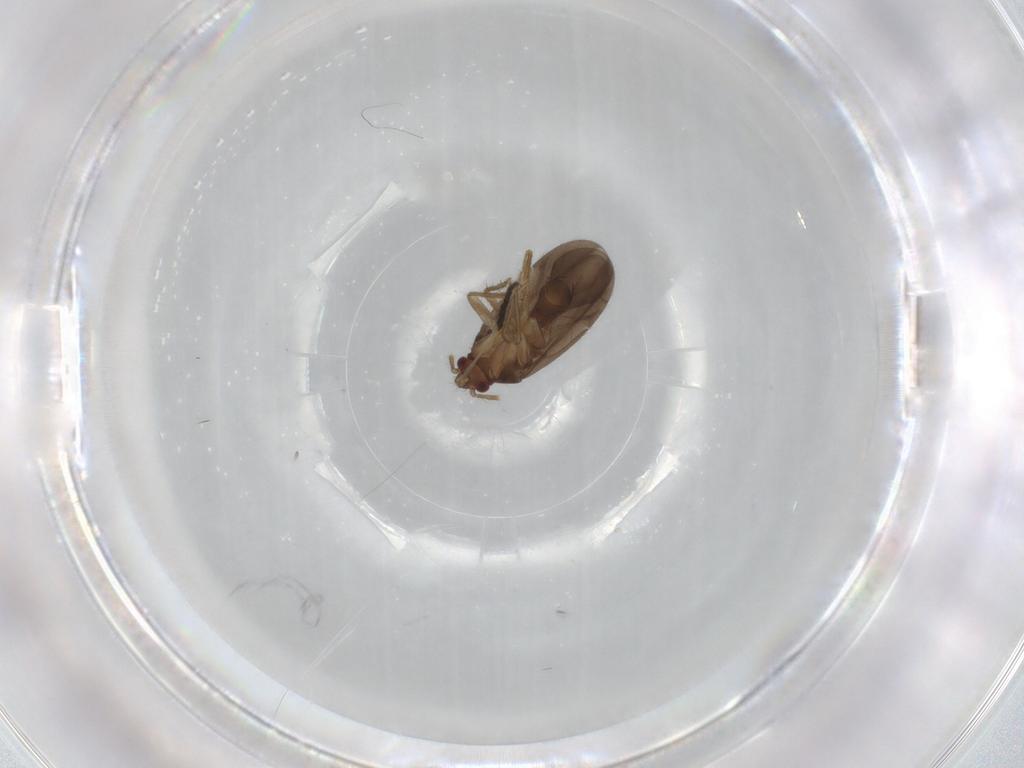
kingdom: Animalia
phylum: Arthropoda
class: Insecta
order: Hemiptera
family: Ceratocombidae
